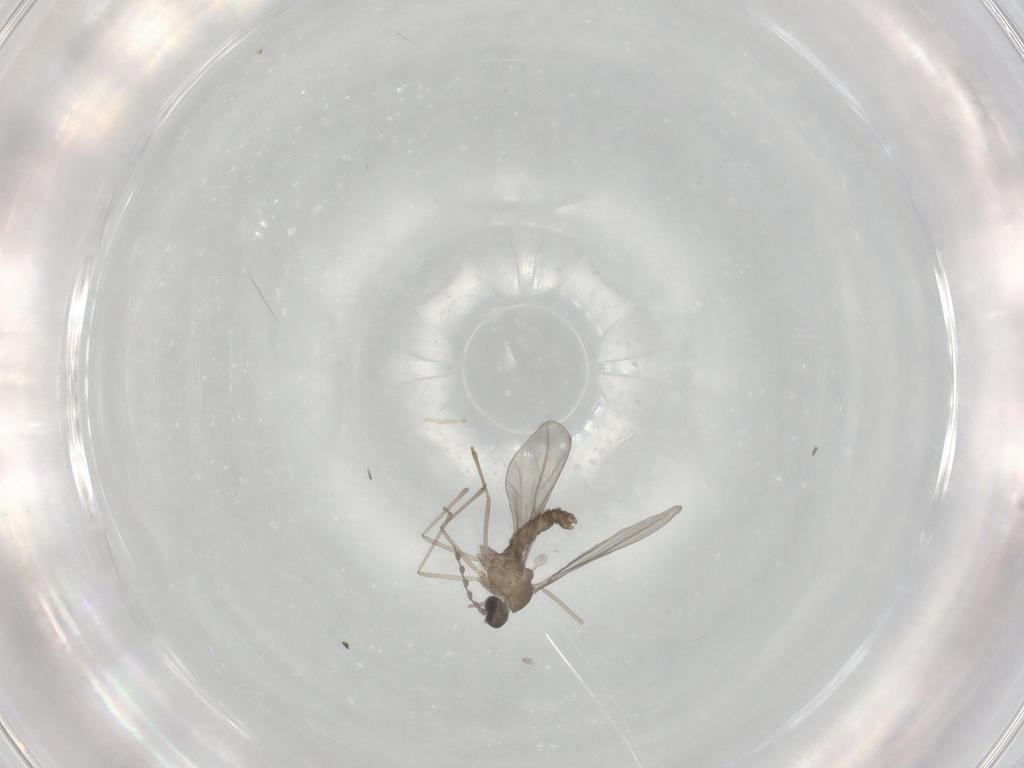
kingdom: Animalia
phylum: Arthropoda
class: Insecta
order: Diptera
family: Cecidomyiidae
